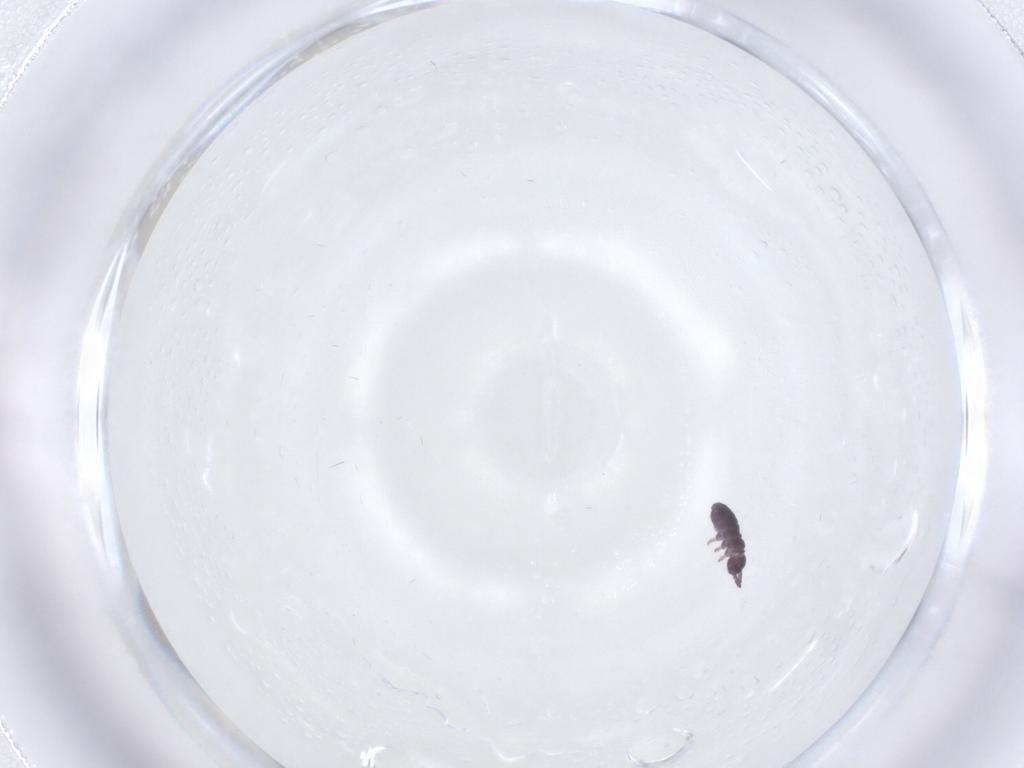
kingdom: Animalia
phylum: Arthropoda
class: Collembola
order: Poduromorpha
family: Hypogastruridae
